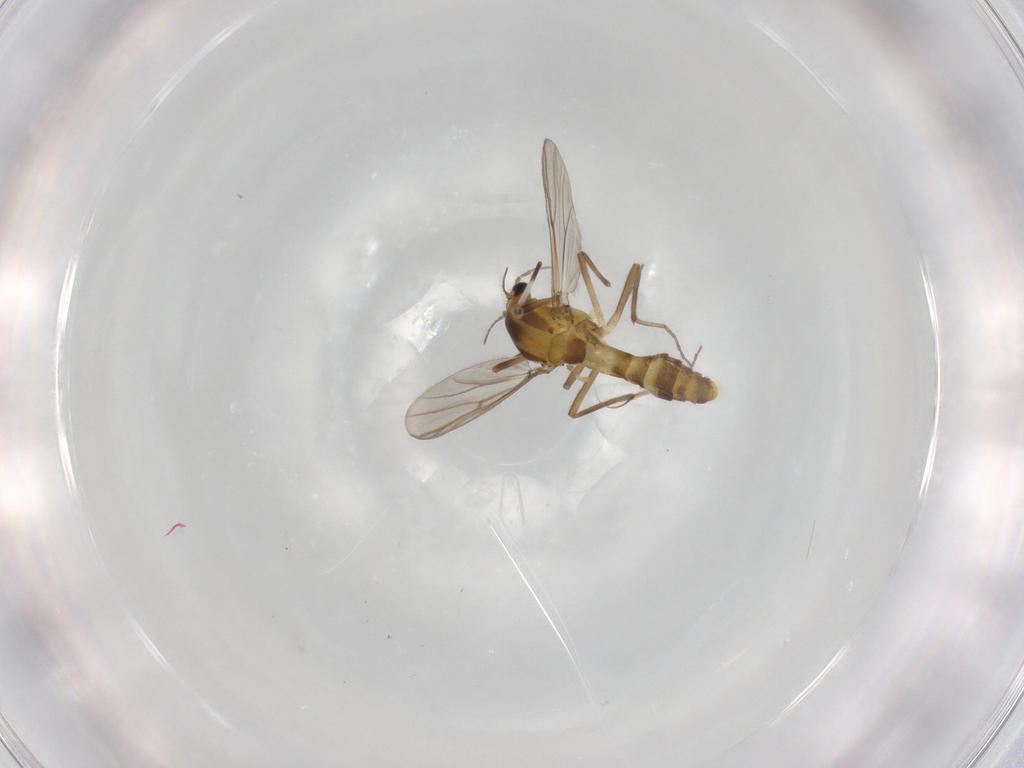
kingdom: Animalia
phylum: Arthropoda
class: Insecta
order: Diptera
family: Chironomidae
